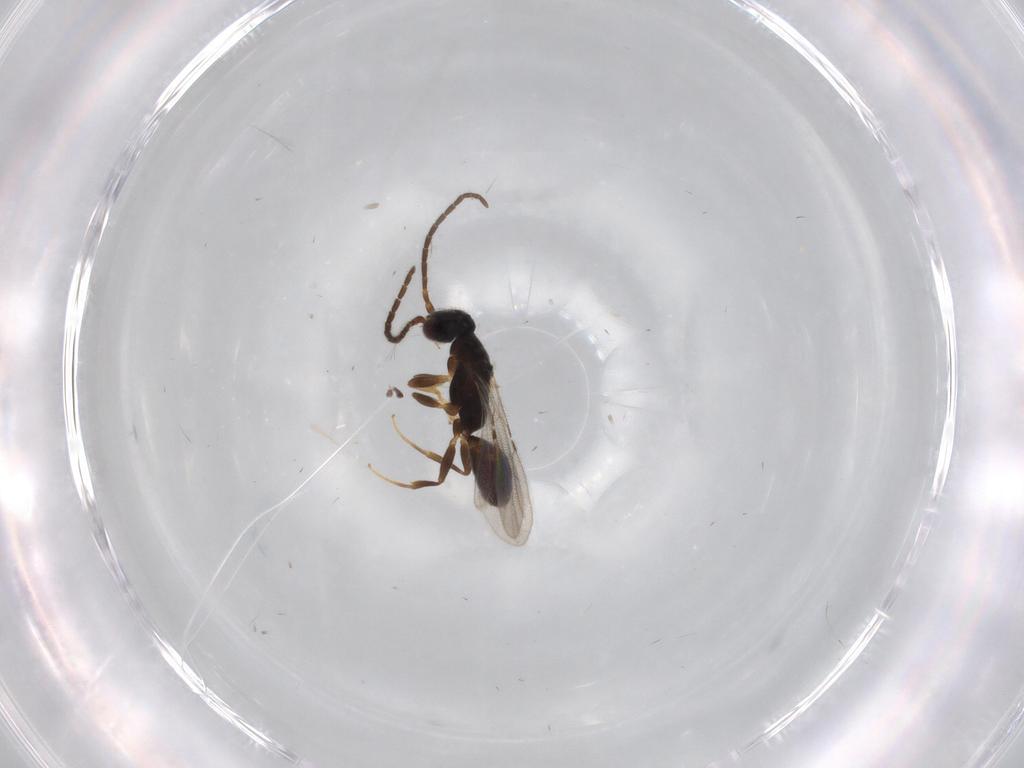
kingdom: Animalia
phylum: Arthropoda
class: Insecta
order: Hymenoptera
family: Bethylidae
